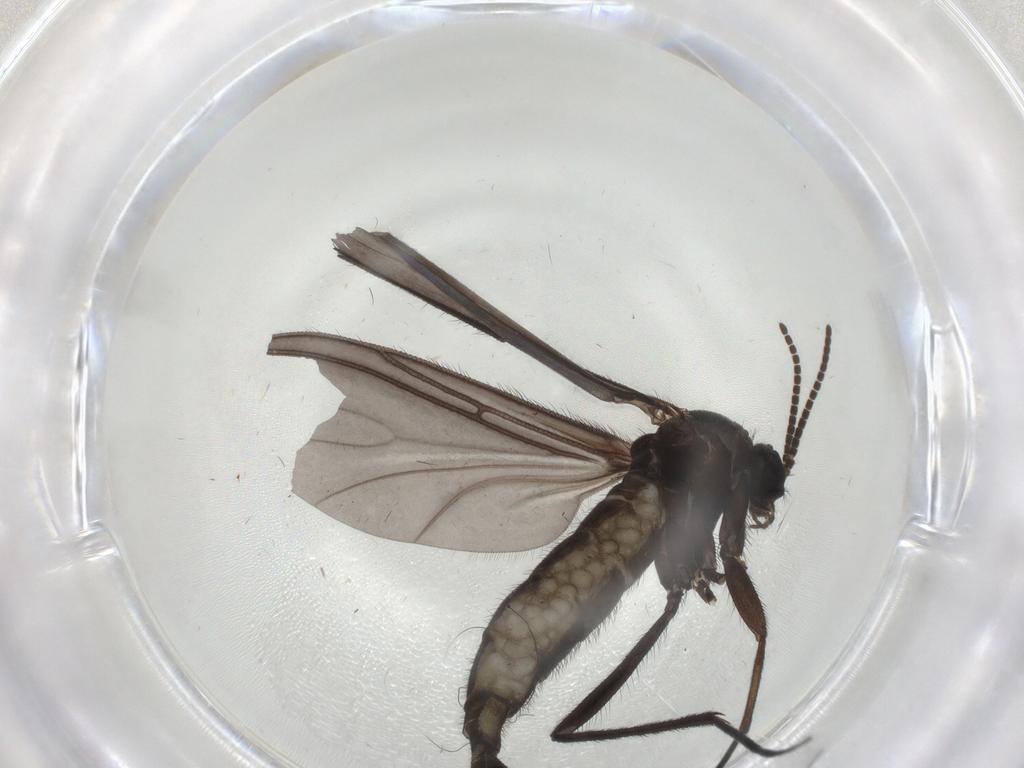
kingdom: Animalia
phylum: Arthropoda
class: Insecta
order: Diptera
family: Sciaridae
